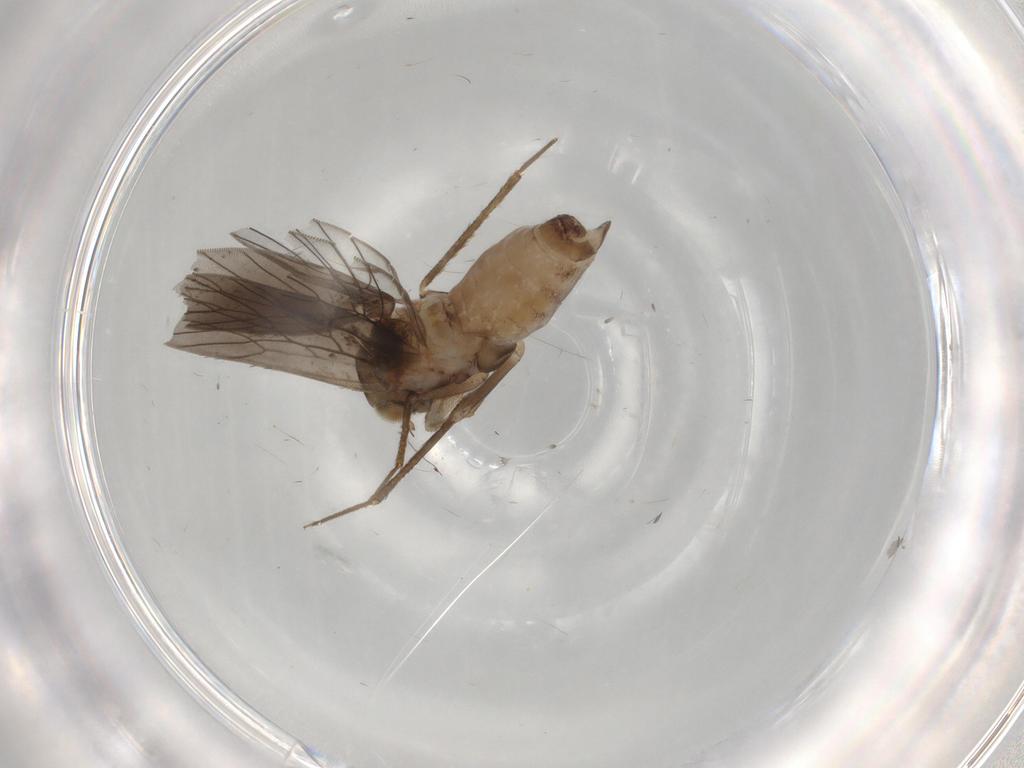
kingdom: Animalia
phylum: Arthropoda
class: Insecta
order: Psocodea
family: Lepidopsocidae
